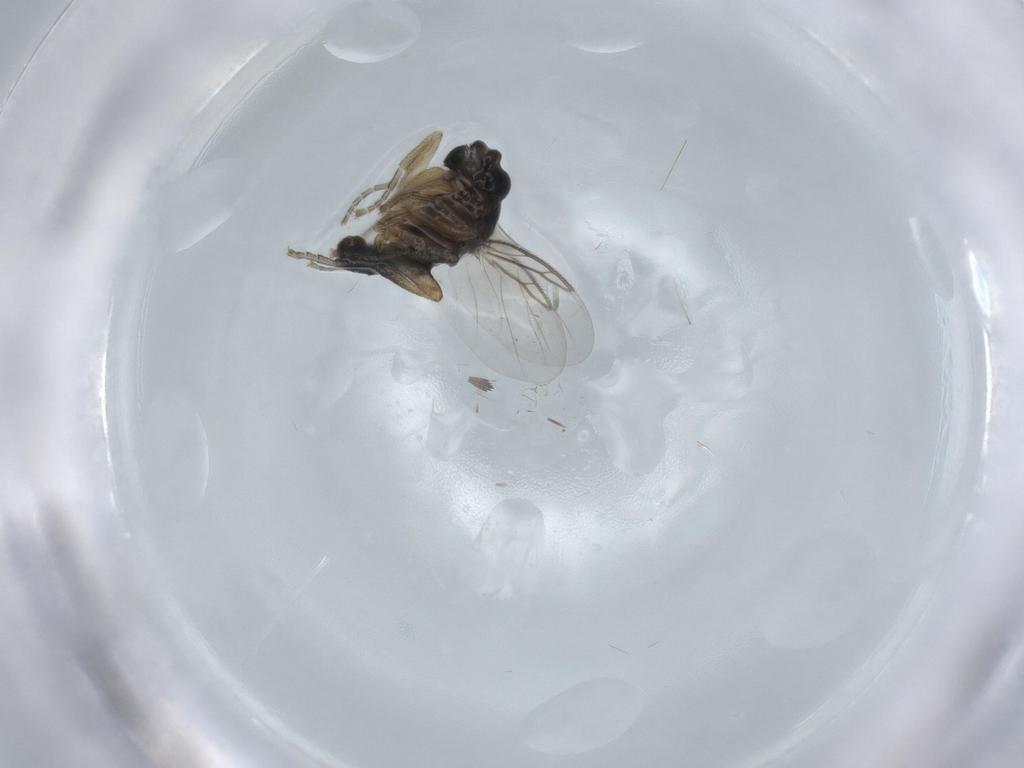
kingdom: Animalia
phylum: Arthropoda
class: Insecta
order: Diptera
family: Phoridae
